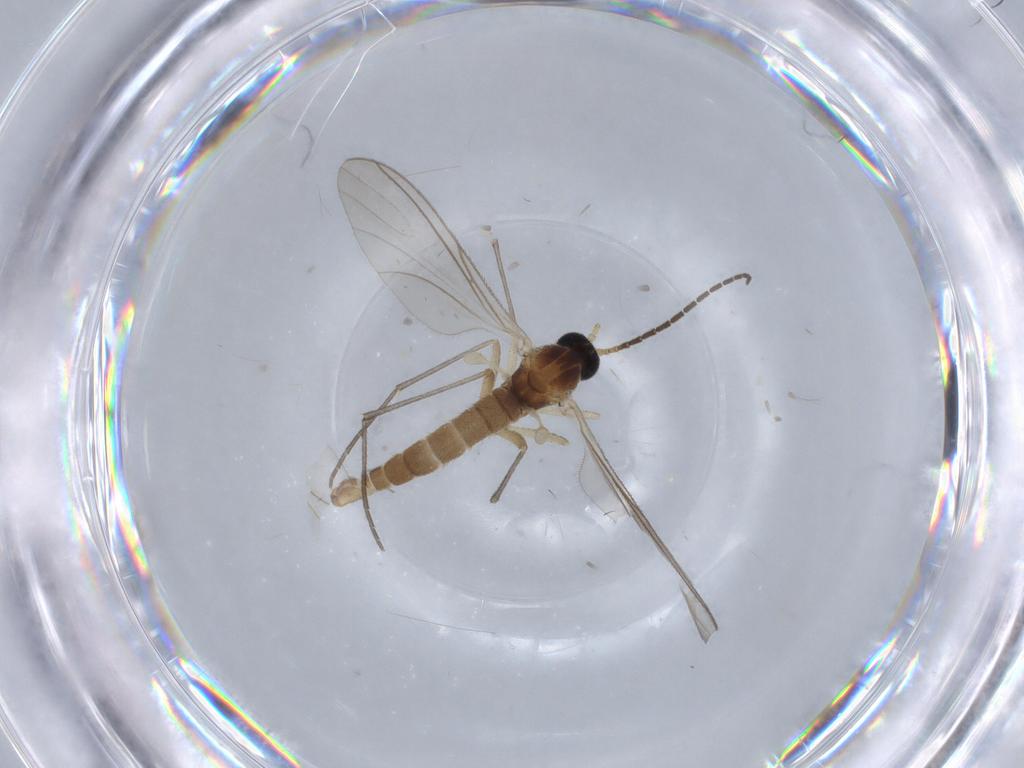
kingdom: Animalia
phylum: Arthropoda
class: Insecta
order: Diptera
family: Sciaridae
